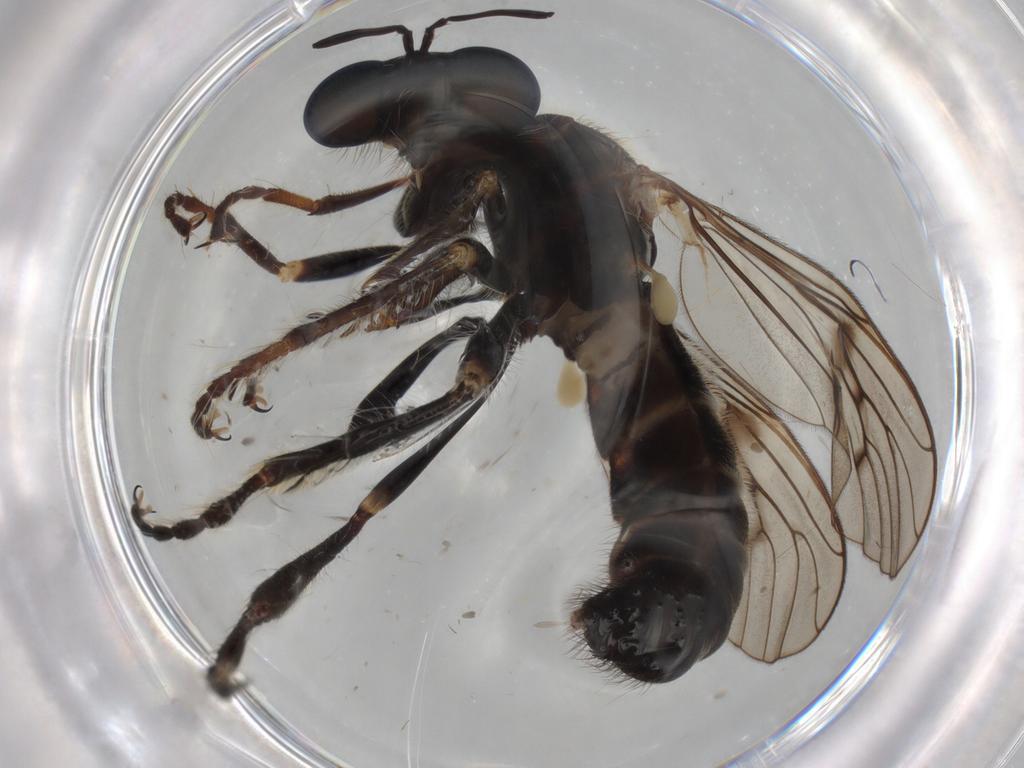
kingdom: Animalia
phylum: Arthropoda
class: Insecta
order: Diptera
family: Ceratopogonidae
